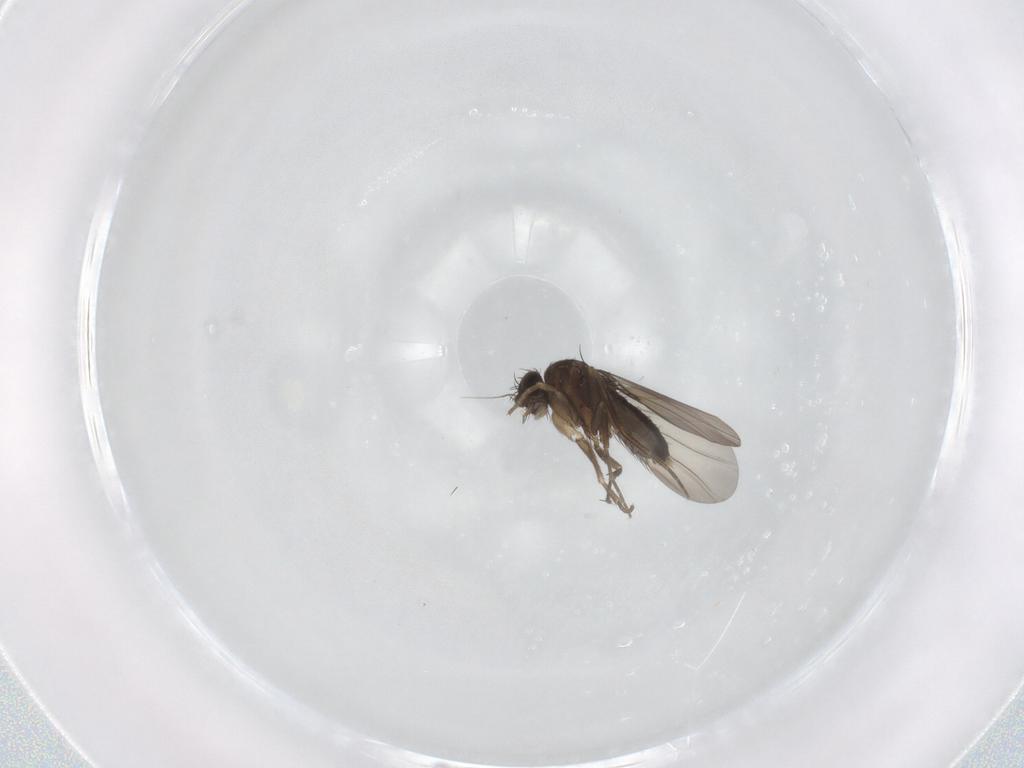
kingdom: Animalia
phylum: Arthropoda
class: Insecta
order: Diptera
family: Phoridae
